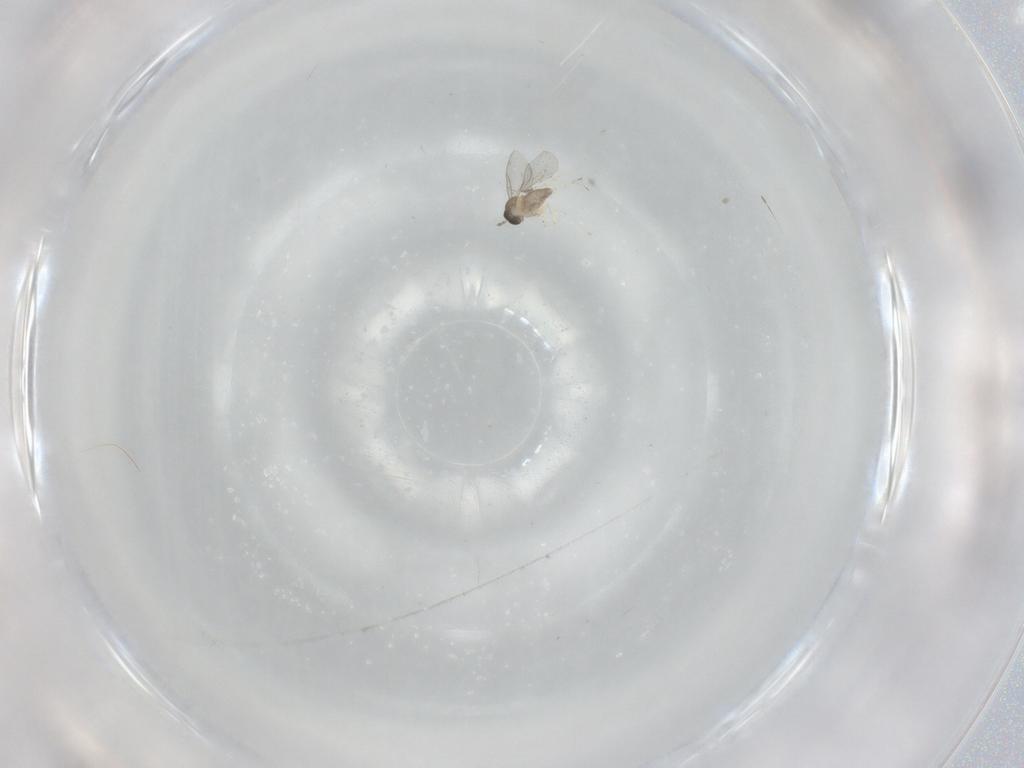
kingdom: Animalia
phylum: Arthropoda
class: Insecta
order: Diptera
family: Cecidomyiidae
